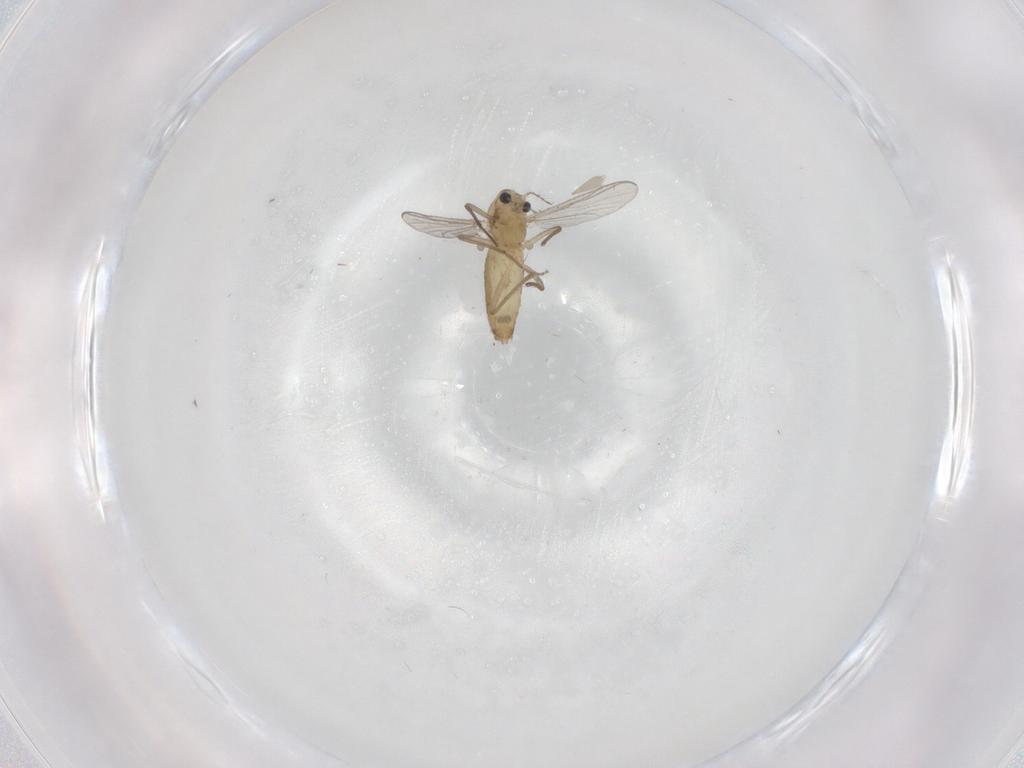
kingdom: Animalia
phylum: Arthropoda
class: Insecta
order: Diptera
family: Chironomidae
